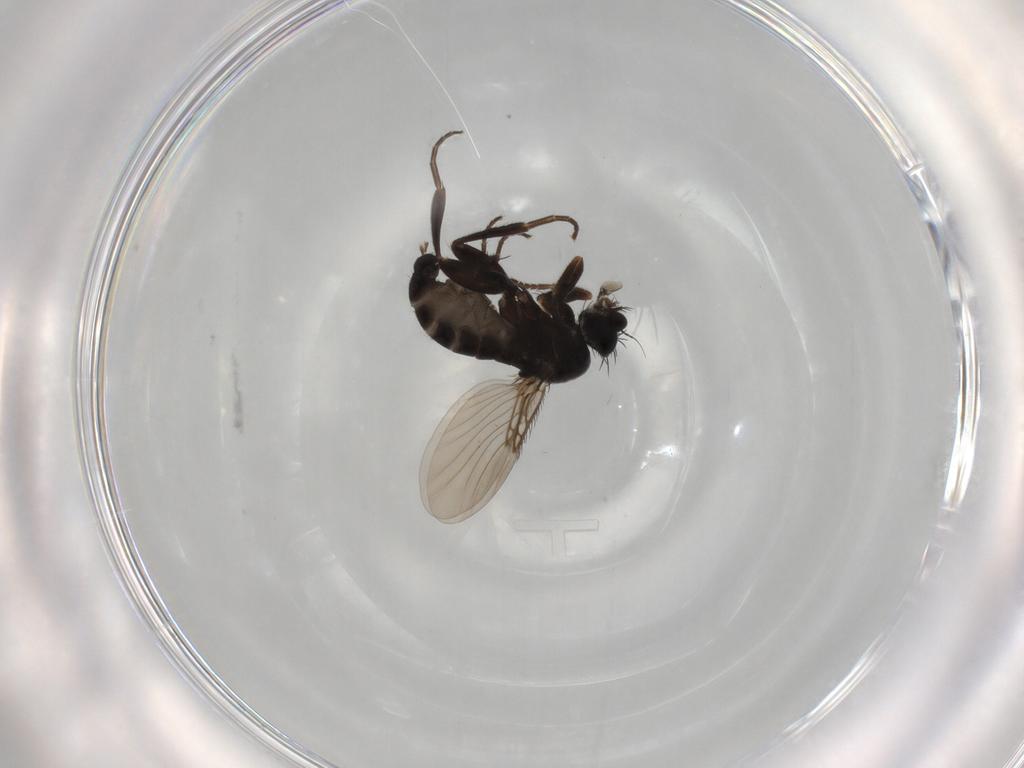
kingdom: Animalia
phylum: Arthropoda
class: Insecta
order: Diptera
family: Phoridae
